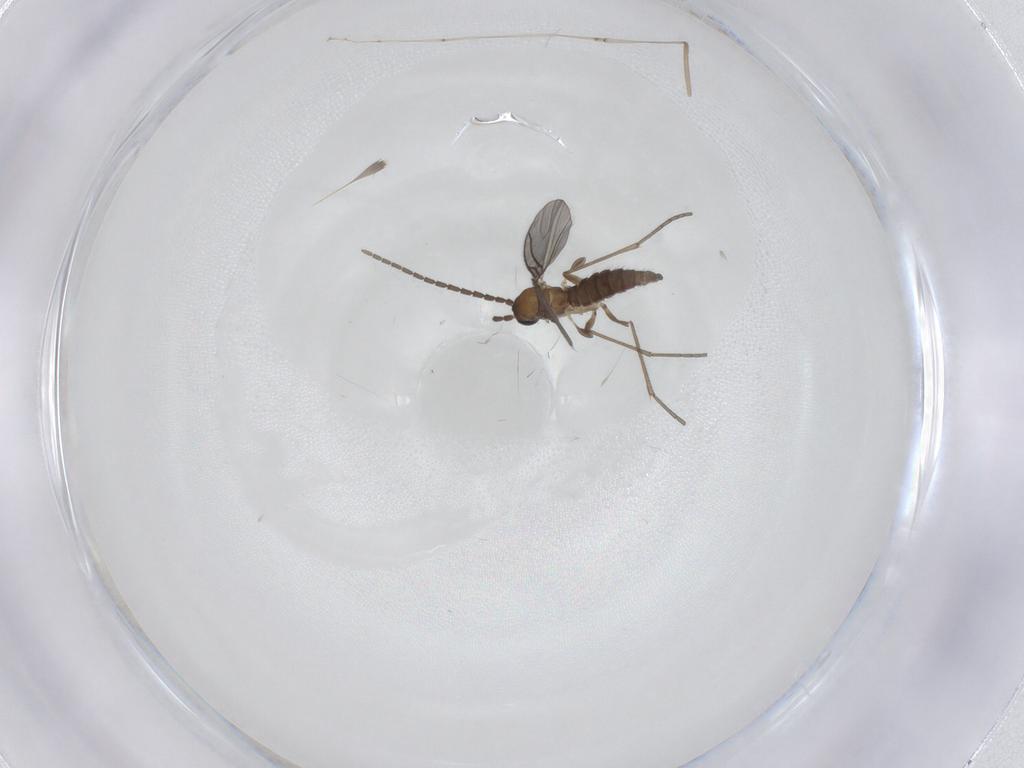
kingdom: Animalia
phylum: Arthropoda
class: Insecta
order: Diptera
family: Sciaridae
